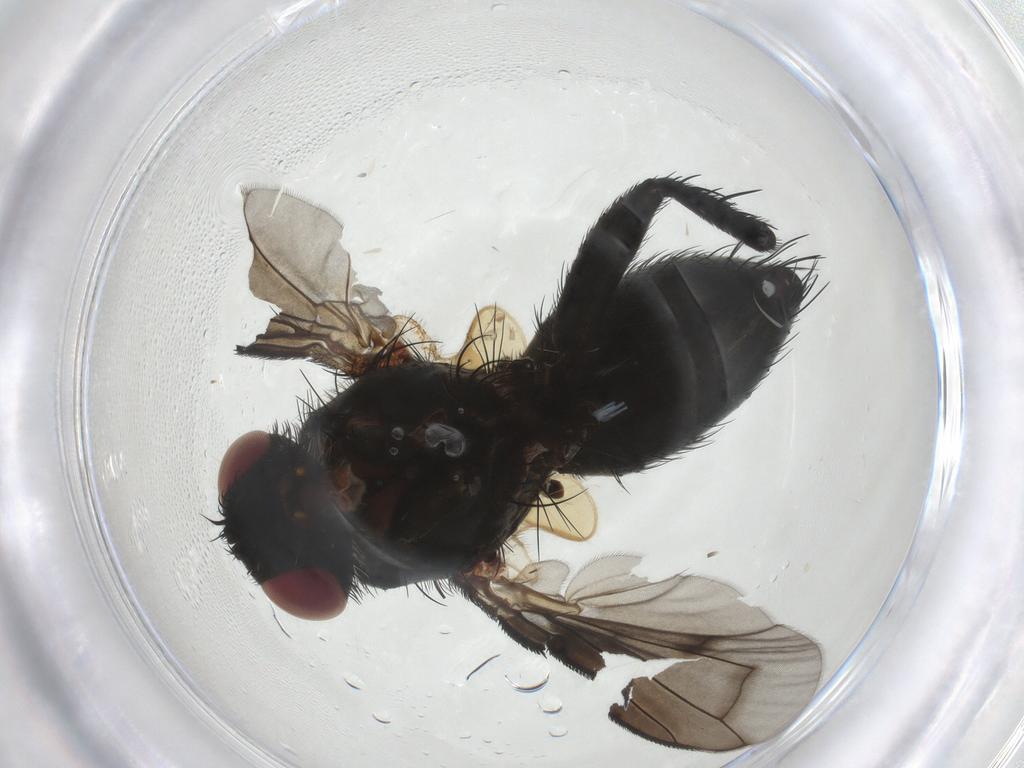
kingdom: Animalia
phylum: Arthropoda
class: Insecta
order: Diptera
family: Tachinidae
